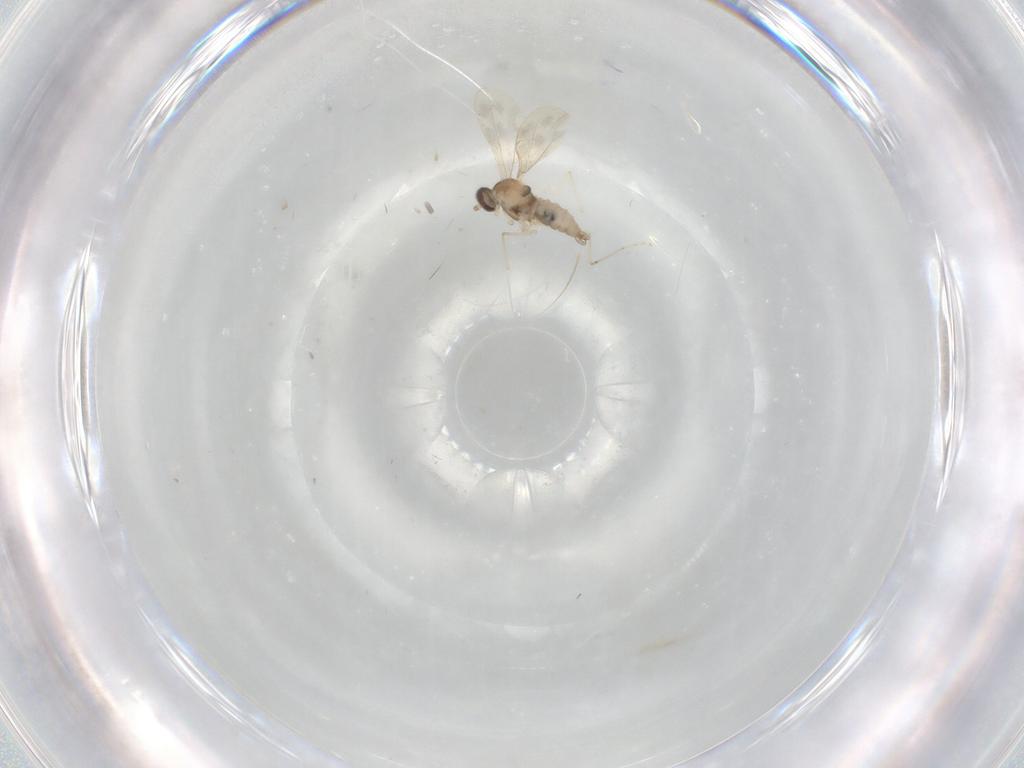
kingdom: Animalia
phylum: Arthropoda
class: Insecta
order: Diptera
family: Cecidomyiidae
